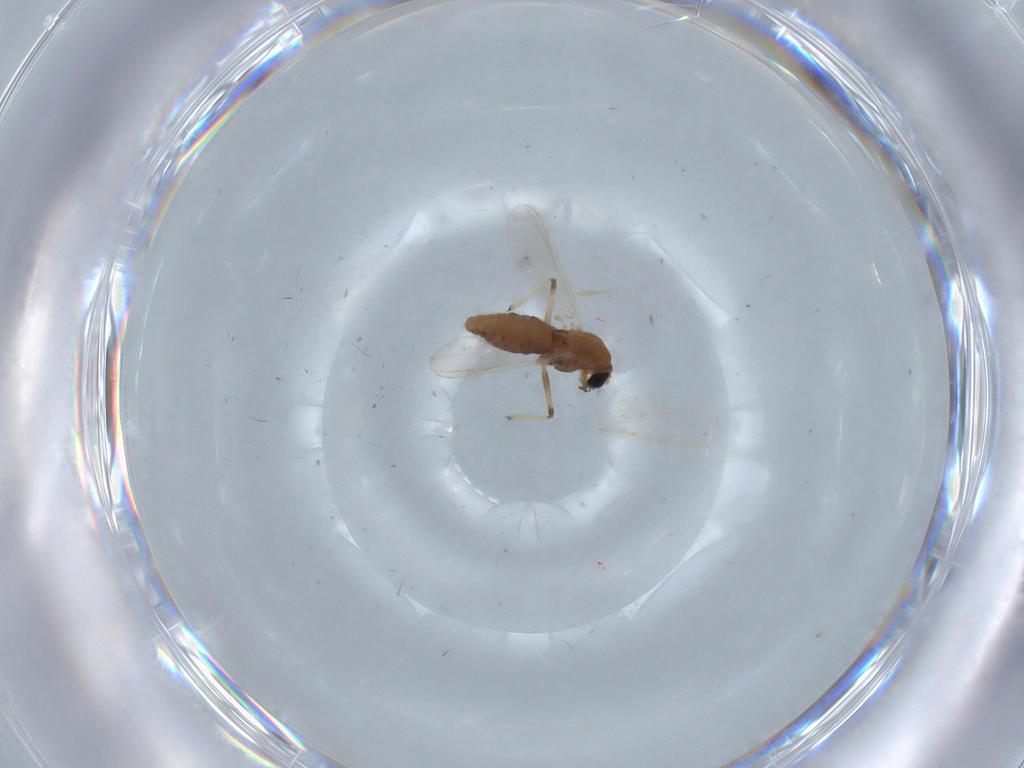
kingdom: Animalia
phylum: Arthropoda
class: Insecta
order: Diptera
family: Chironomidae
